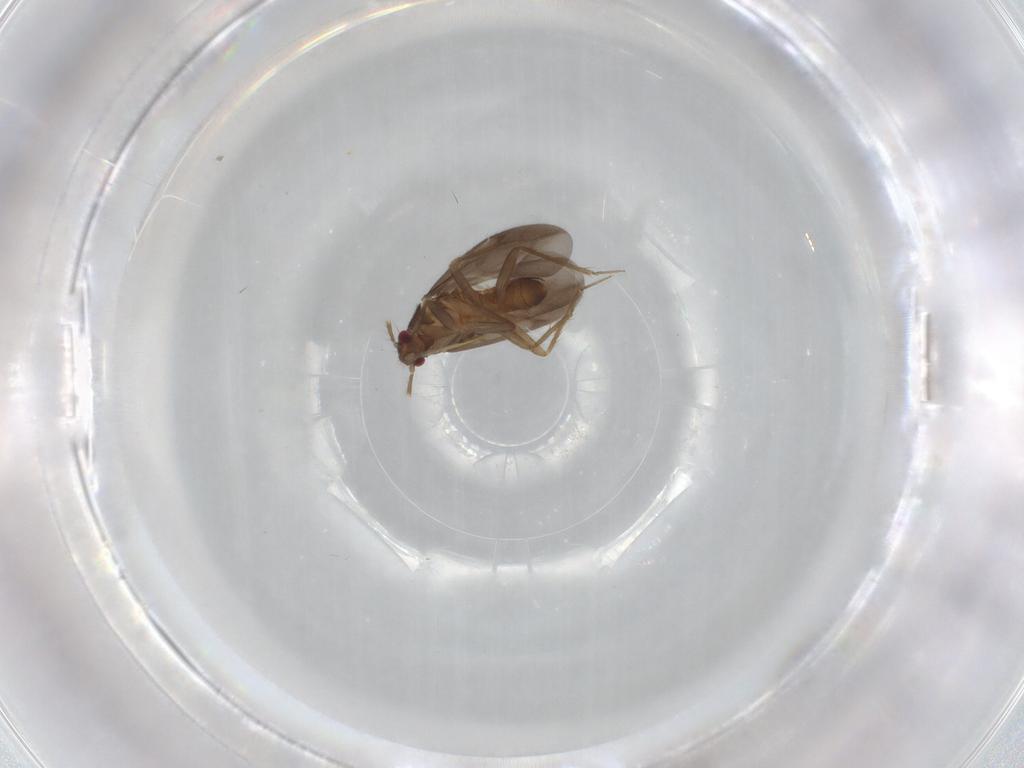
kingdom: Animalia
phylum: Arthropoda
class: Insecta
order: Hemiptera
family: Ceratocombidae
